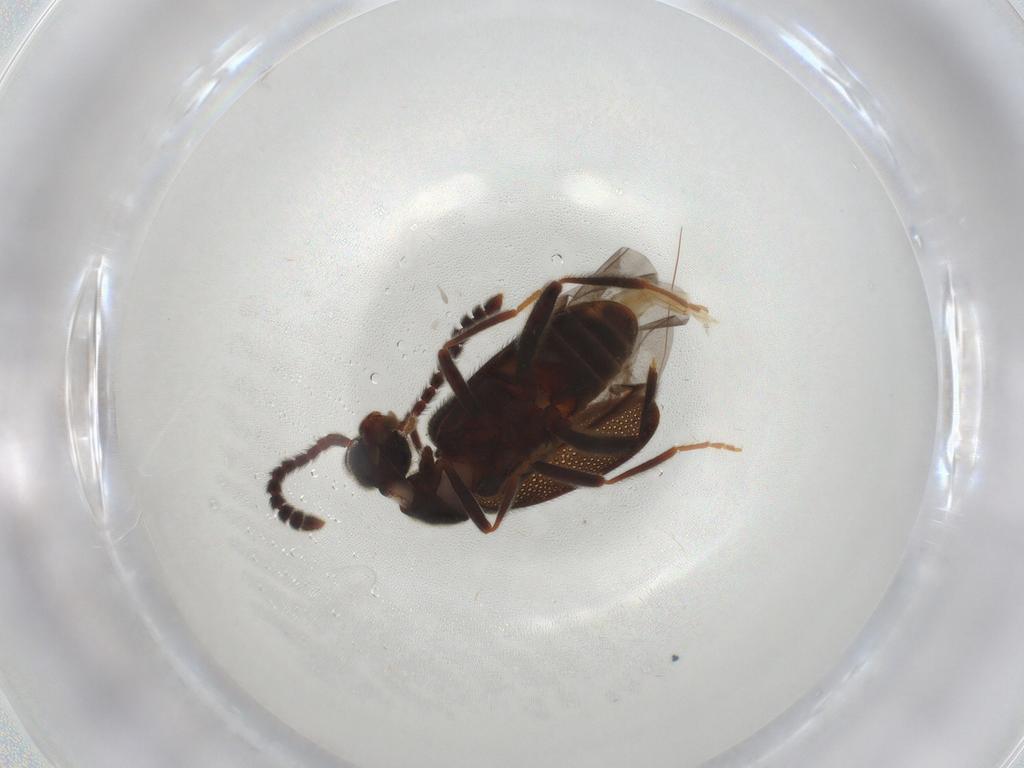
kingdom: Animalia
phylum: Arthropoda
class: Insecta
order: Coleoptera
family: Aderidae
